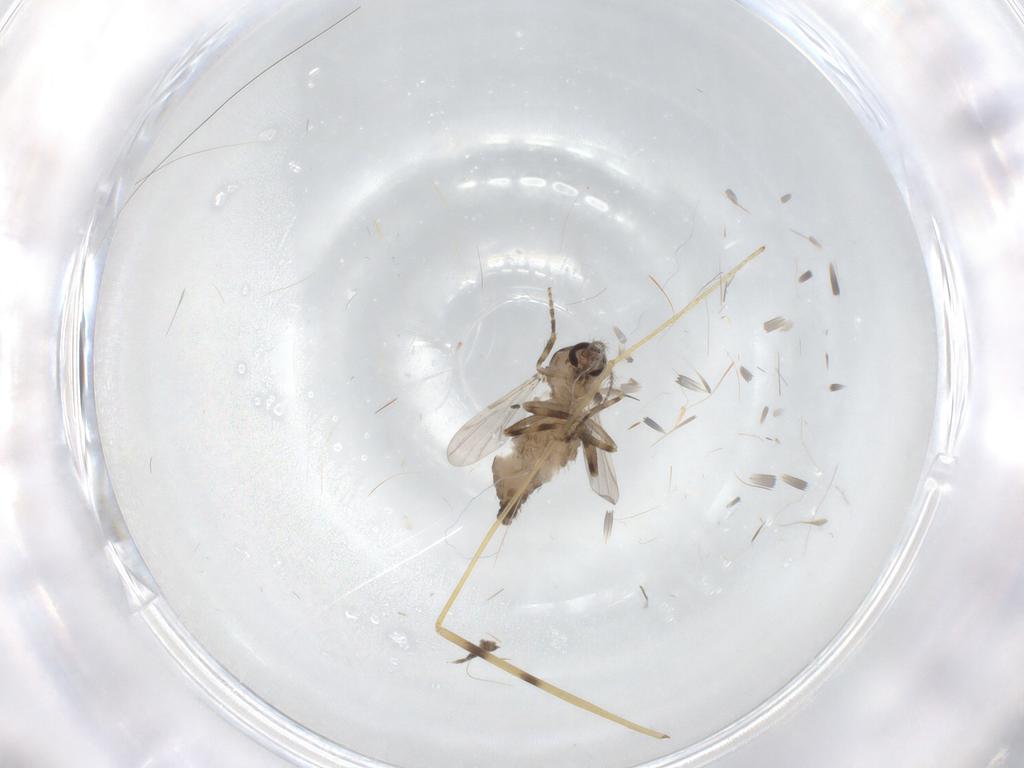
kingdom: Animalia
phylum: Arthropoda
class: Insecta
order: Diptera
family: Ceratopogonidae
